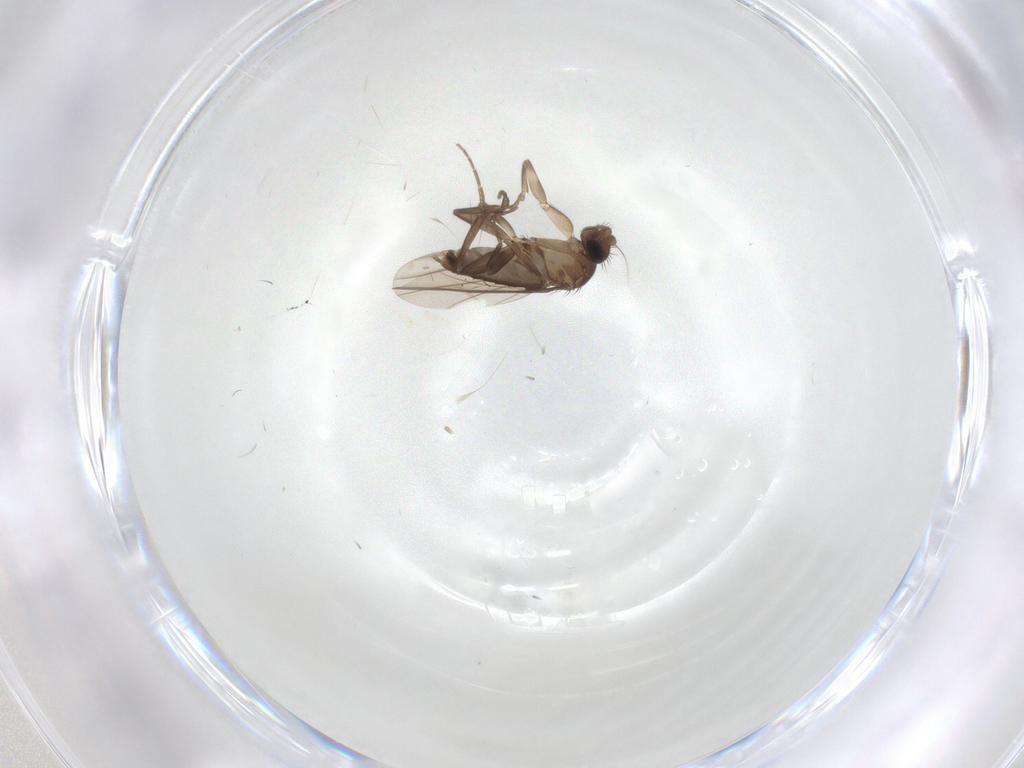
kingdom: Animalia
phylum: Arthropoda
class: Insecta
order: Diptera
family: Phoridae
